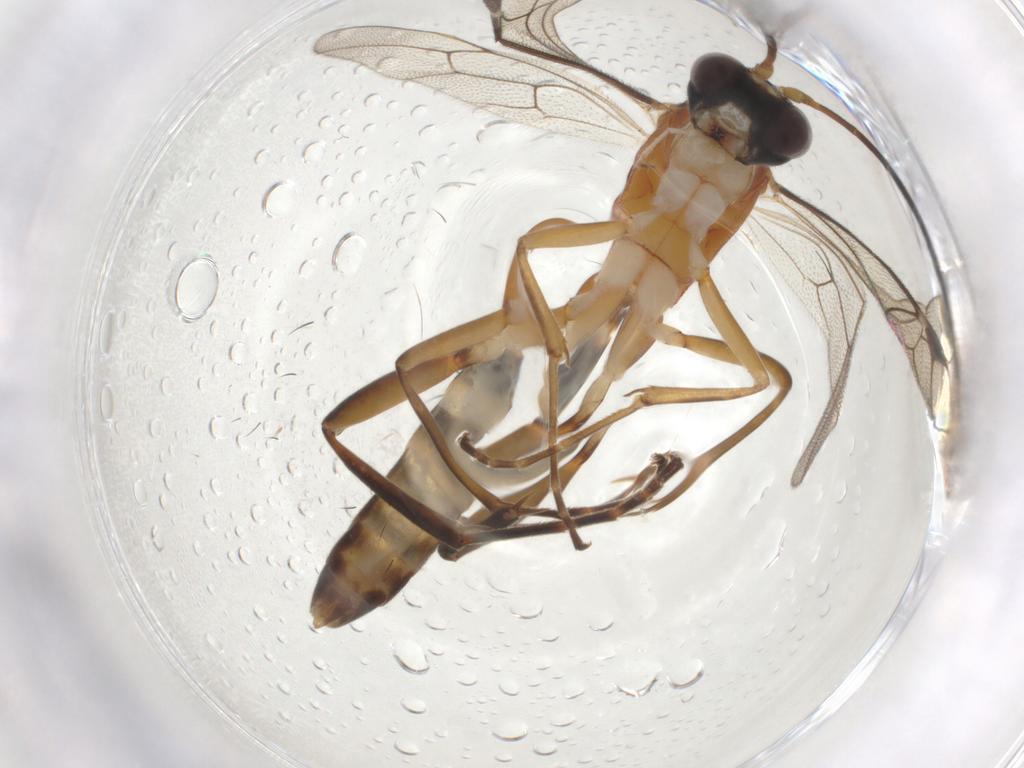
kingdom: Animalia
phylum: Arthropoda
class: Insecta
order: Hymenoptera
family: Ichneumonidae
